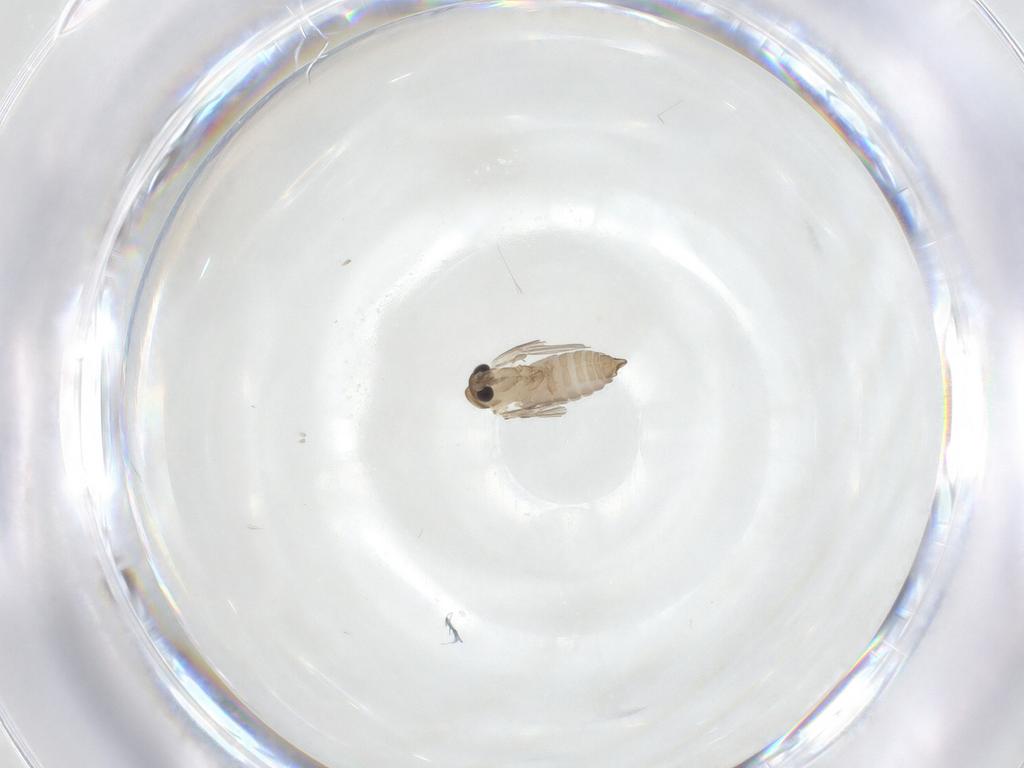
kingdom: Animalia
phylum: Arthropoda
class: Insecta
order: Diptera
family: Psychodidae
